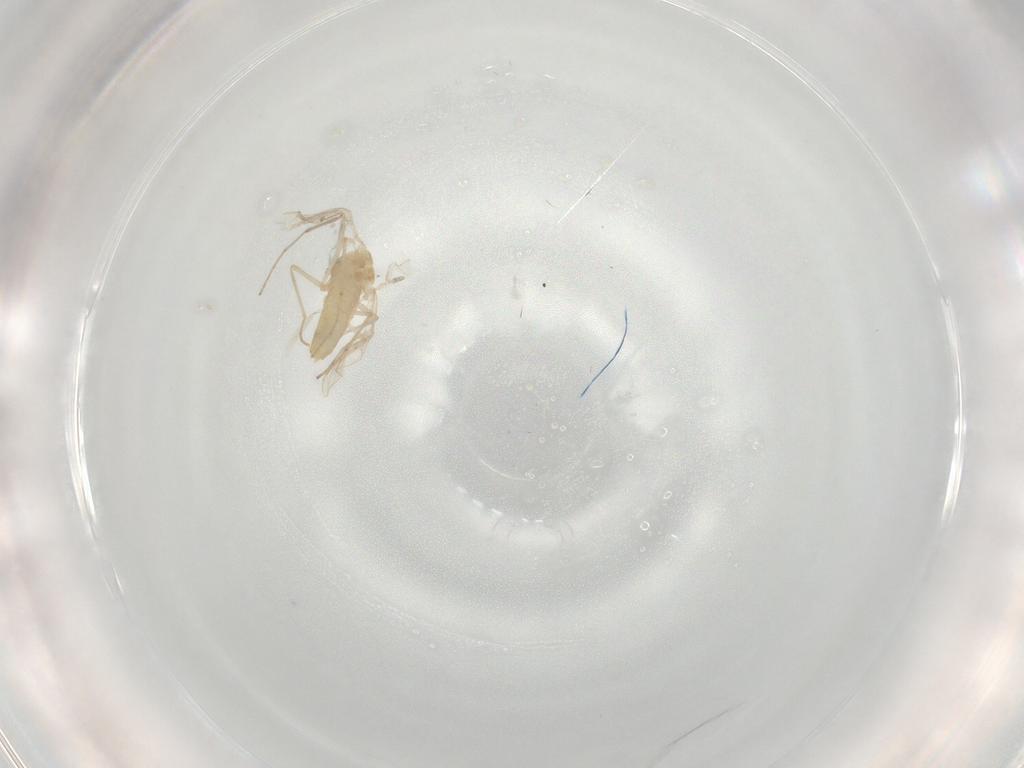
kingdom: Animalia
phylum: Arthropoda
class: Insecta
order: Diptera
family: Chironomidae
